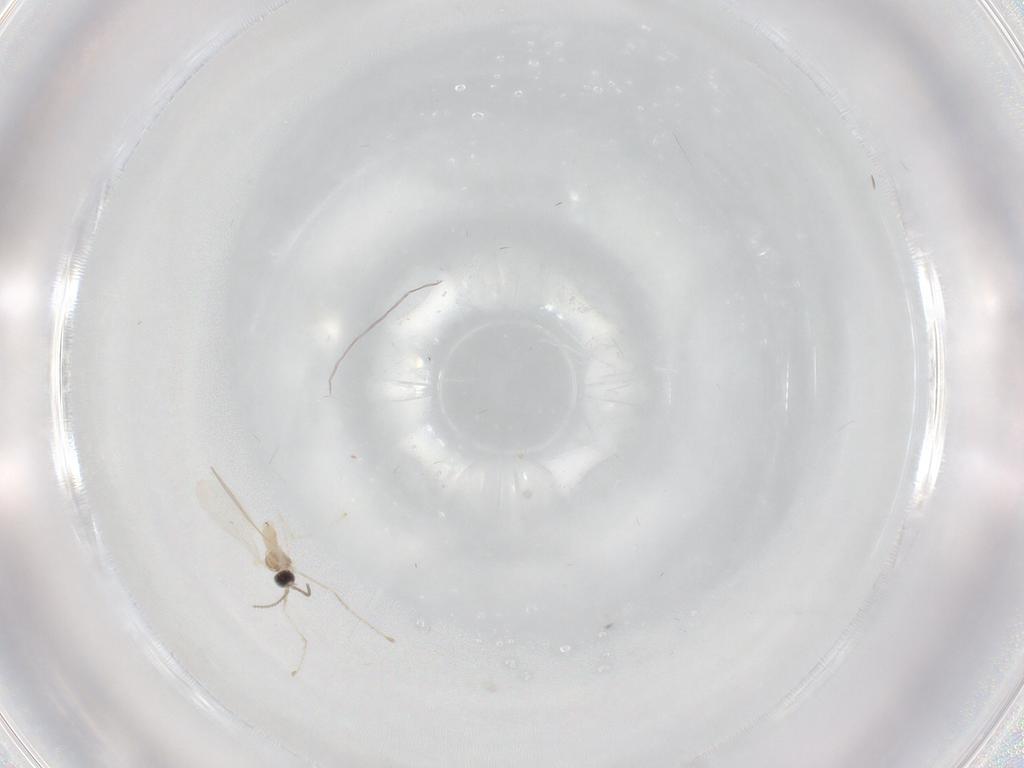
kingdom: Animalia
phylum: Arthropoda
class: Insecta
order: Diptera
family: Cecidomyiidae
